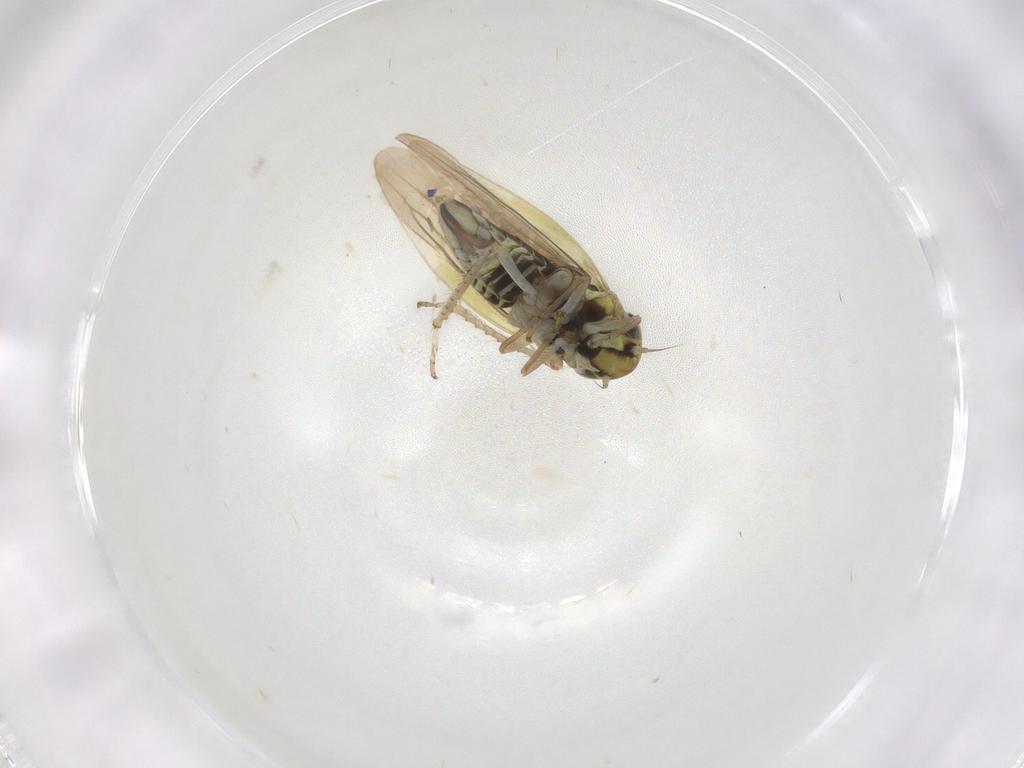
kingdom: Animalia
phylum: Arthropoda
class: Insecta
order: Hemiptera
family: Cicadellidae
